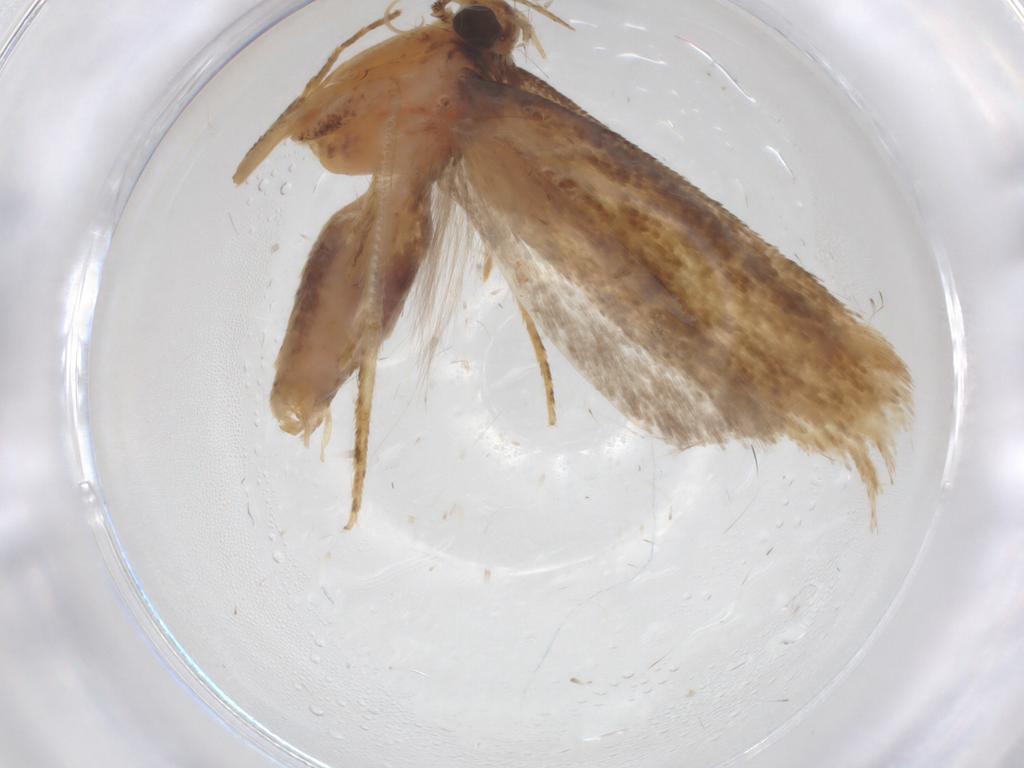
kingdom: Animalia
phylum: Arthropoda
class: Insecta
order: Lepidoptera
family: Gelechiidae
